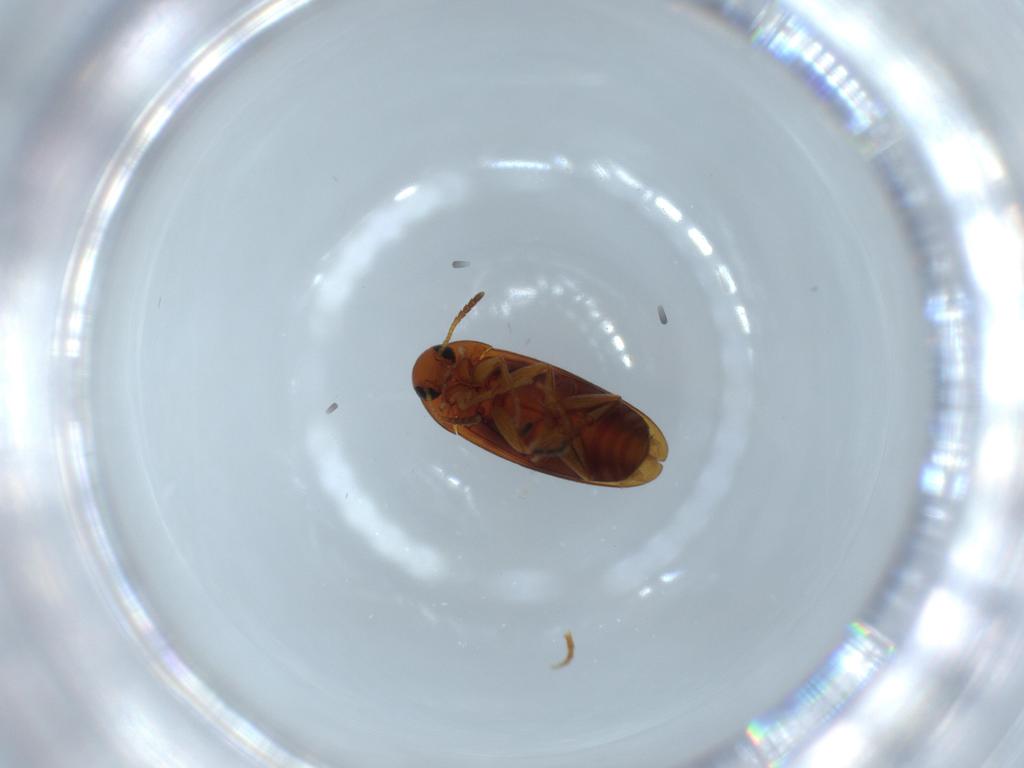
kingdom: Animalia
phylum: Arthropoda
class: Insecta
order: Coleoptera
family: Scraptiidae
